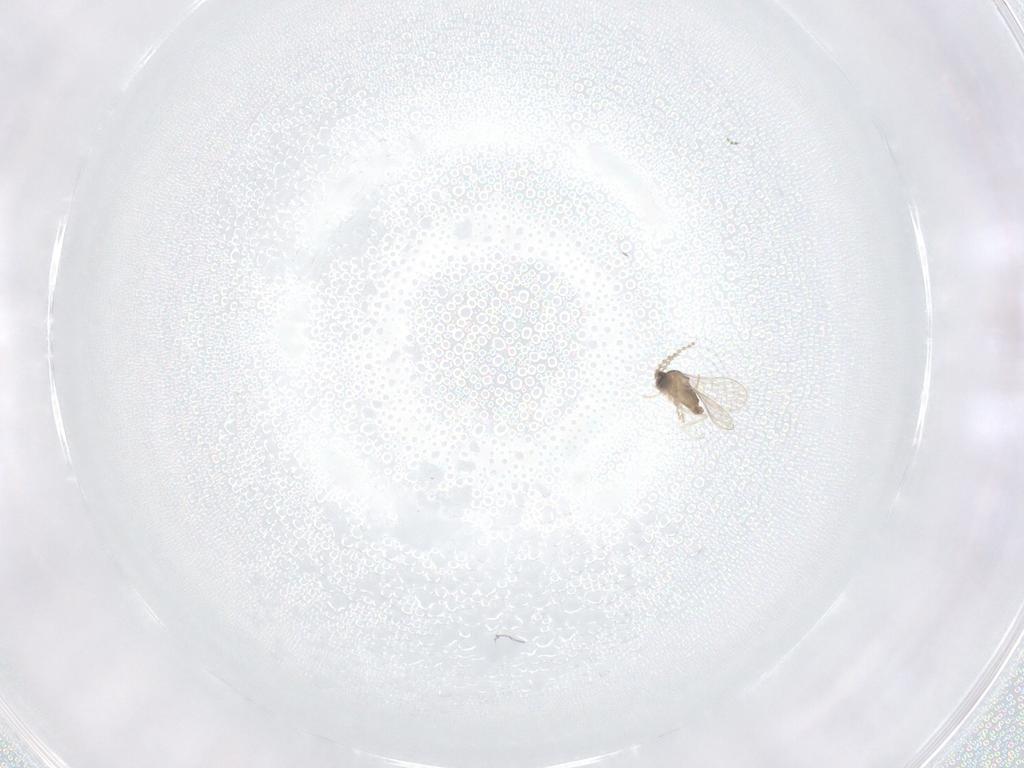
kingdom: Animalia
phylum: Arthropoda
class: Insecta
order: Diptera
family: Cecidomyiidae
